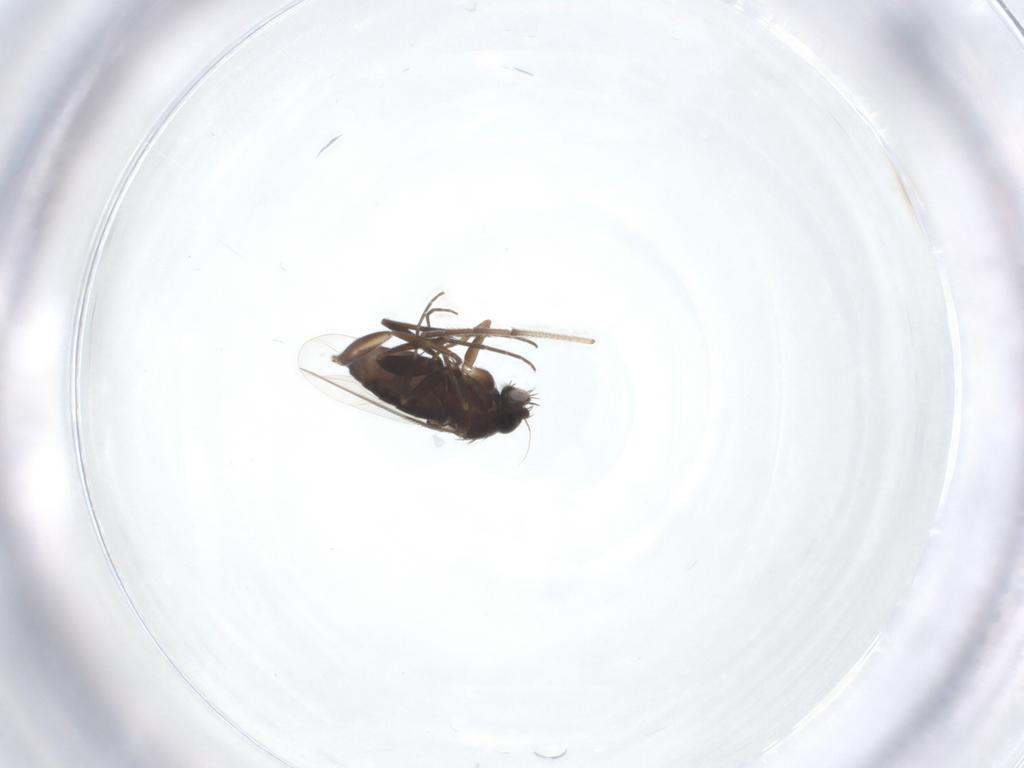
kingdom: Animalia
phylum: Arthropoda
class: Insecta
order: Diptera
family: Phoridae
